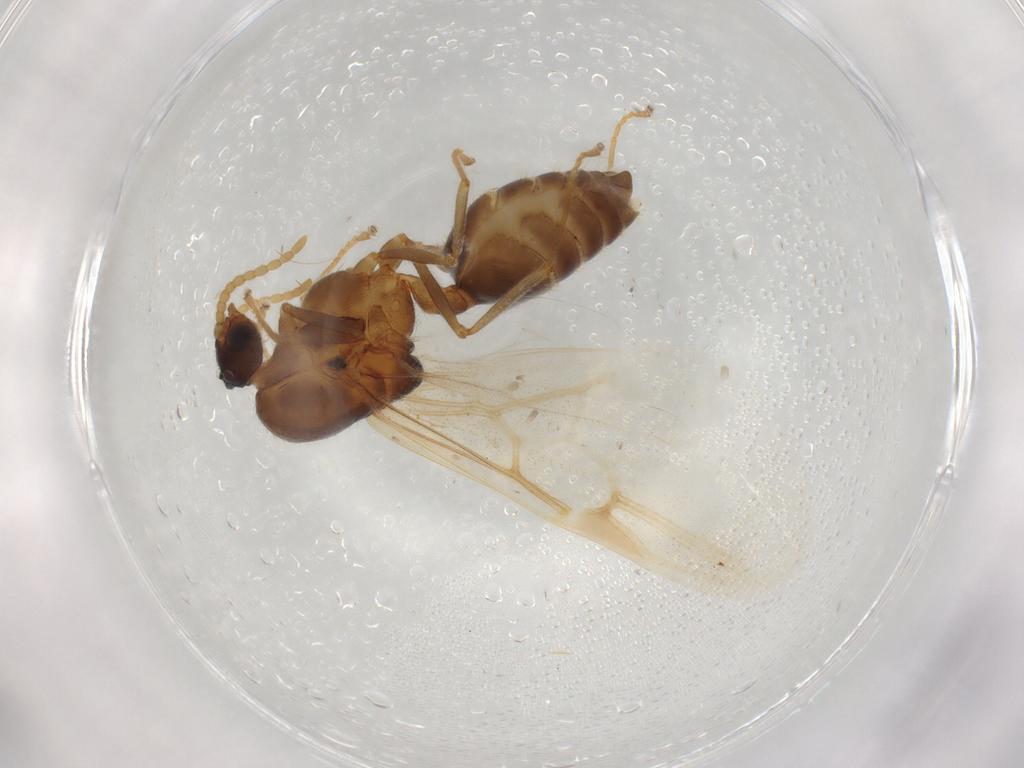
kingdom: Animalia
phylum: Arthropoda
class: Insecta
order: Hymenoptera
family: Formicidae
